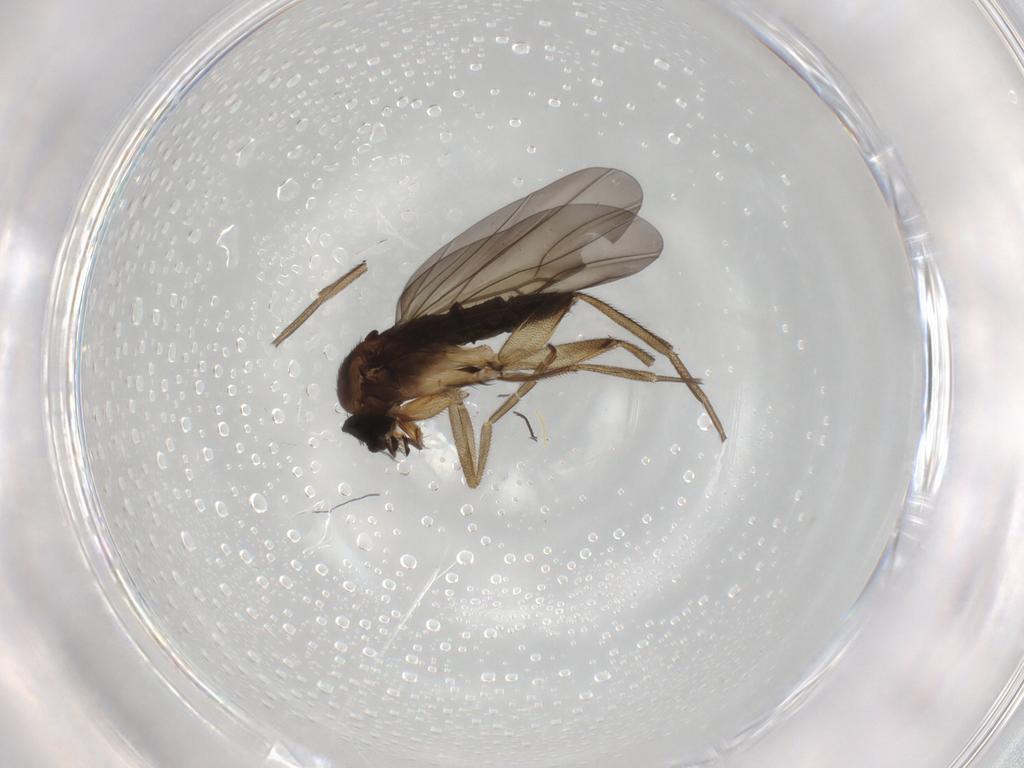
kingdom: Animalia
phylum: Arthropoda
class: Insecta
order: Diptera
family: Phoridae
